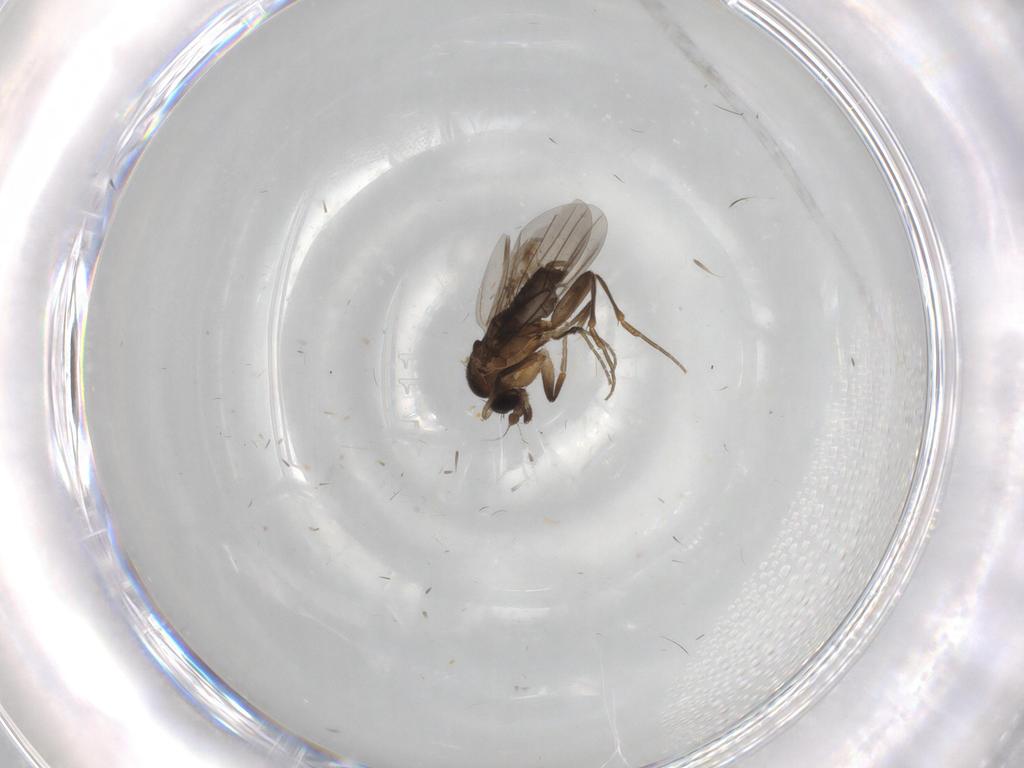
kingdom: Animalia
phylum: Arthropoda
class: Insecta
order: Diptera
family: Phoridae
